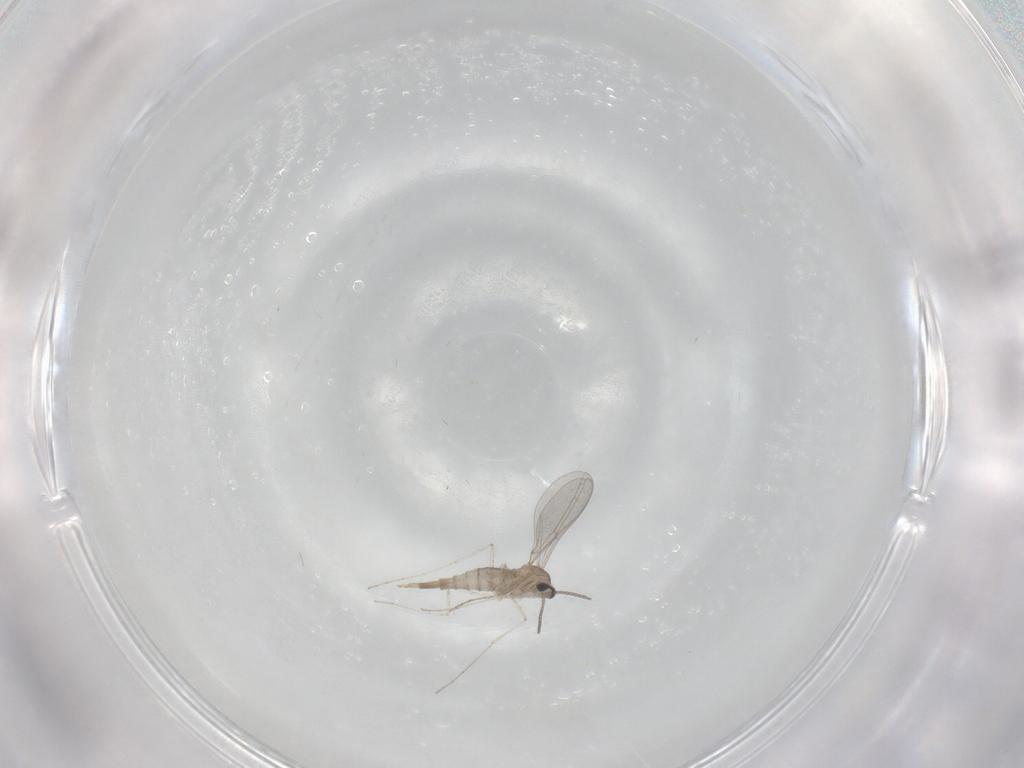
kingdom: Animalia
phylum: Arthropoda
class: Insecta
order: Diptera
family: Cecidomyiidae
